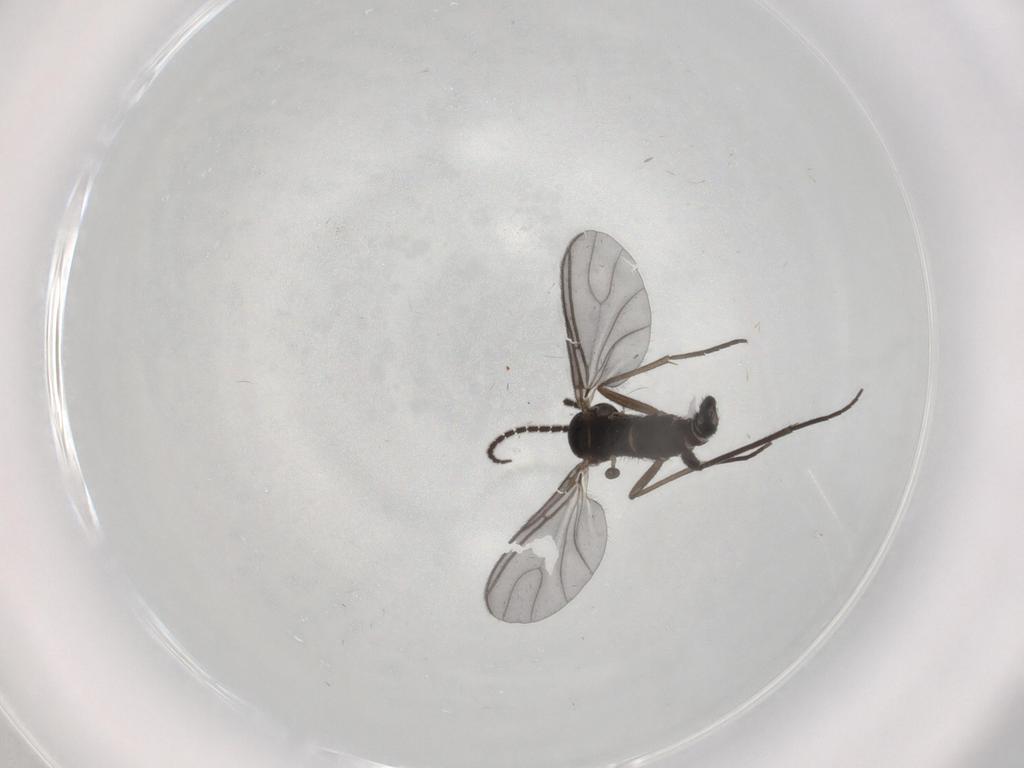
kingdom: Animalia
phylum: Arthropoda
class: Insecta
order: Diptera
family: Sciaridae
